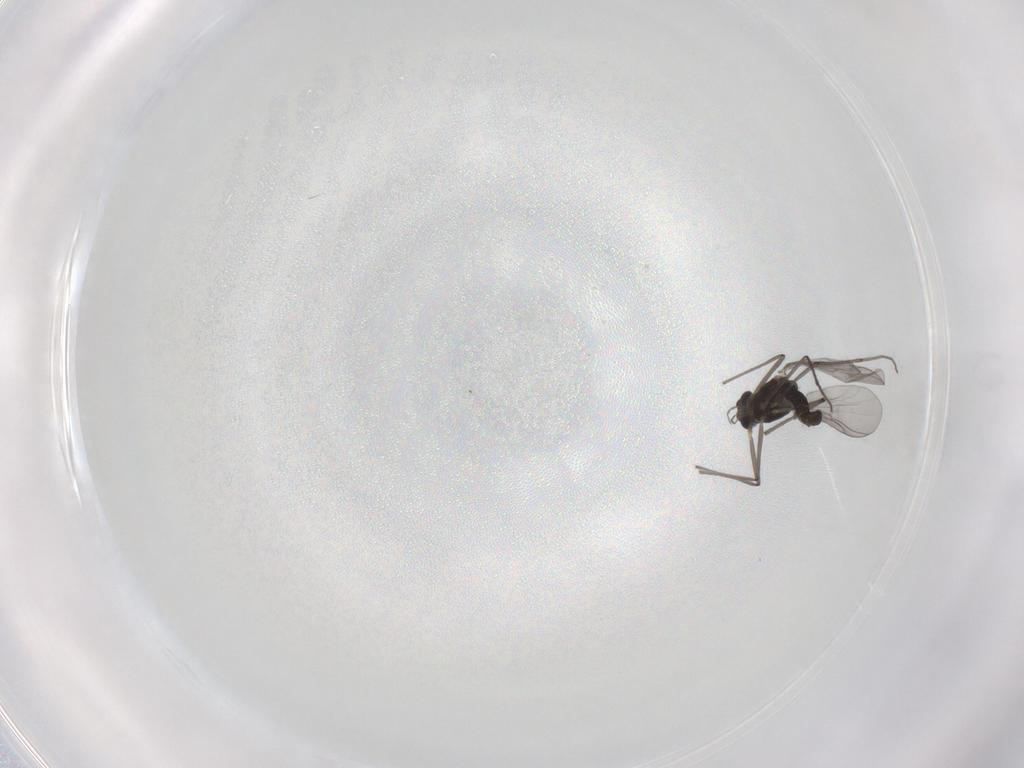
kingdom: Animalia
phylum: Arthropoda
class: Insecta
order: Diptera
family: Chironomidae
